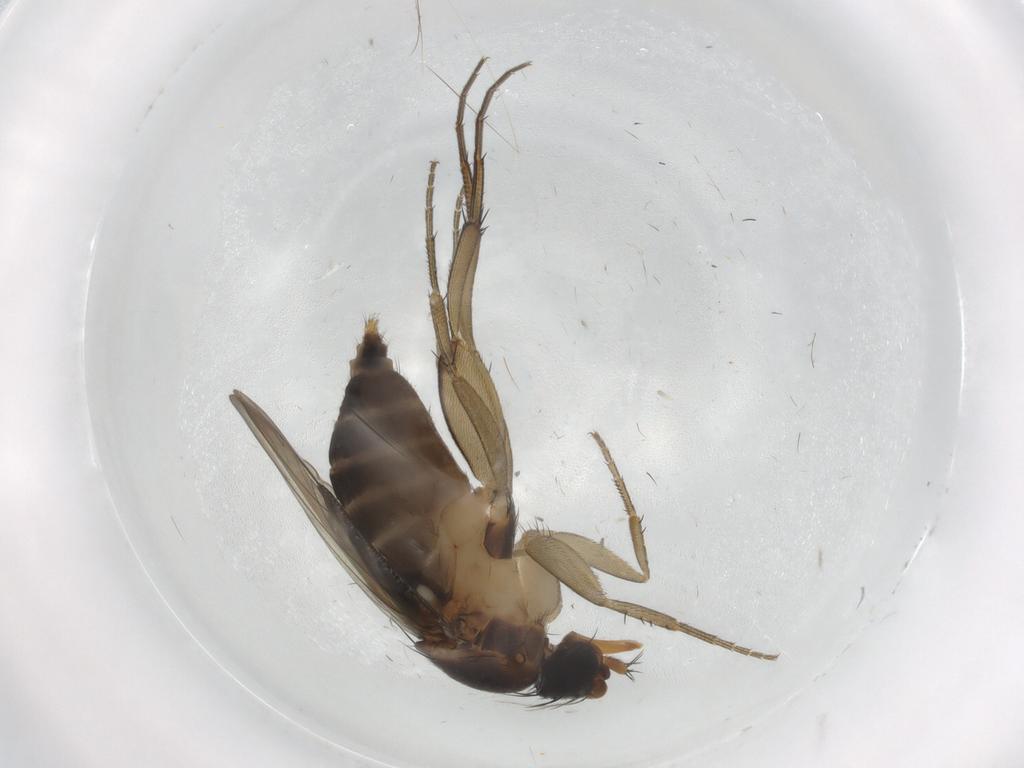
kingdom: Animalia
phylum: Arthropoda
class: Insecta
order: Diptera
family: Phoridae
